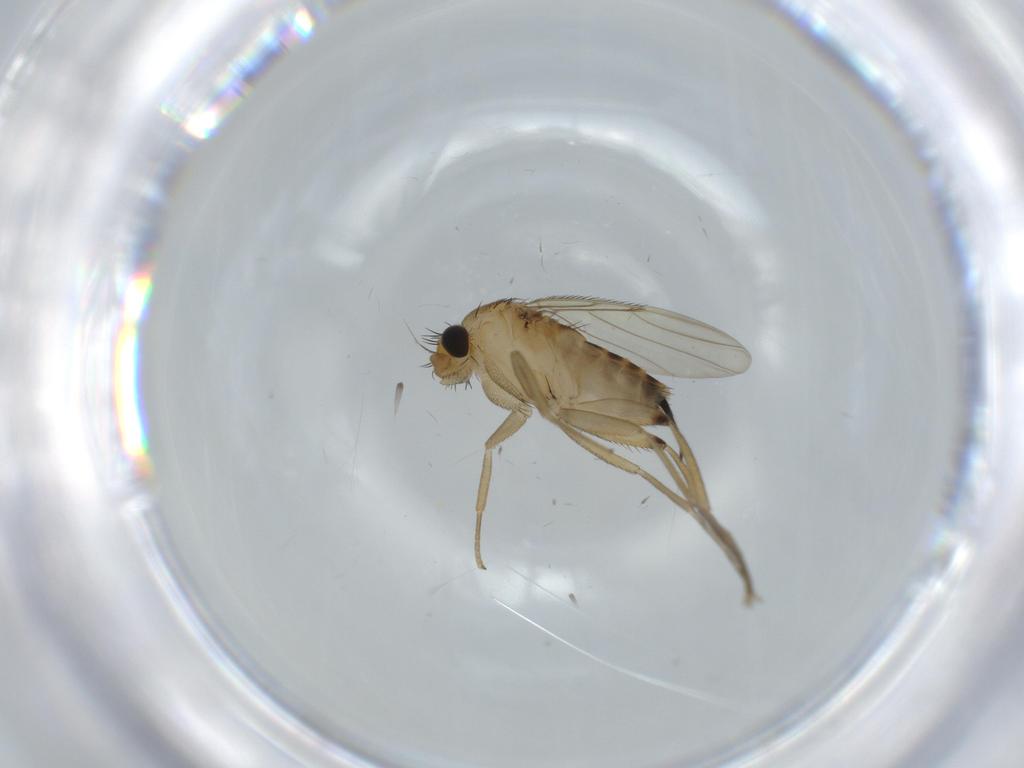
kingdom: Animalia
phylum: Arthropoda
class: Insecta
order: Diptera
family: Phoridae
